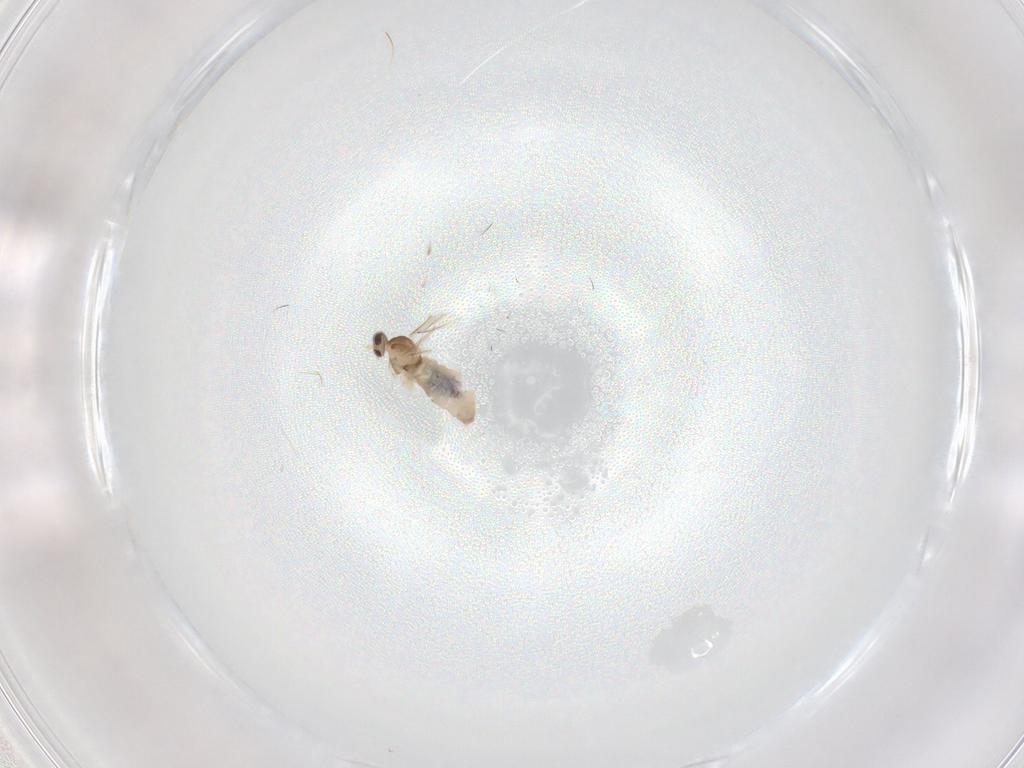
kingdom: Animalia
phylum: Arthropoda
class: Insecta
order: Diptera
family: Cecidomyiidae
